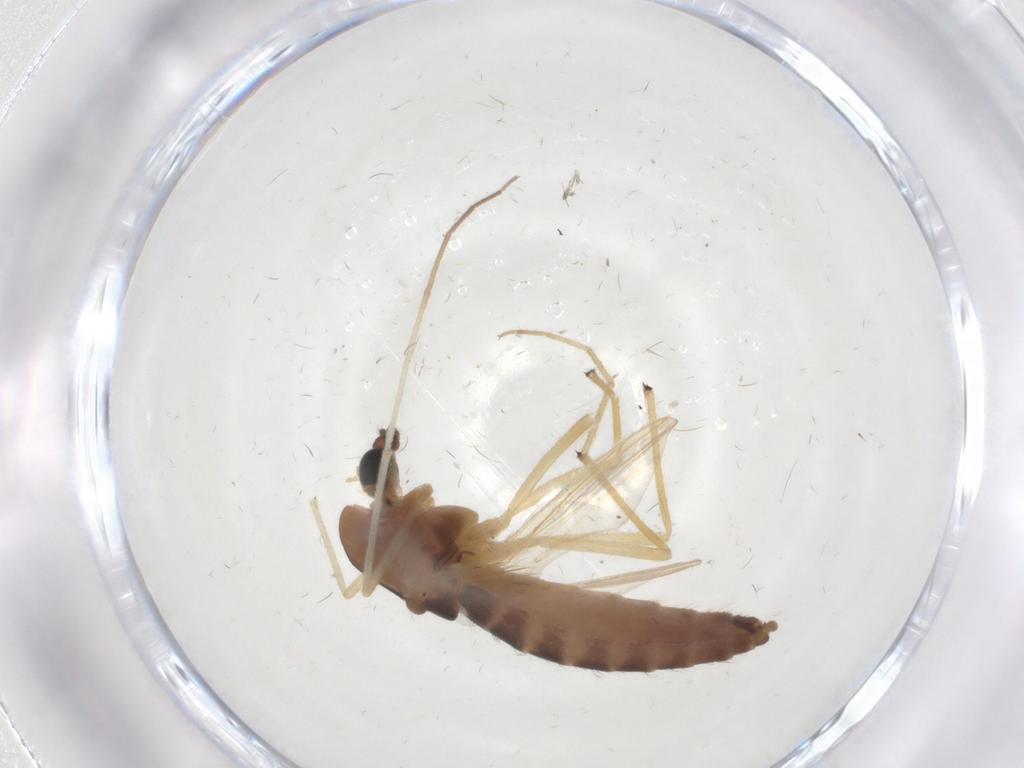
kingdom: Animalia
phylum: Arthropoda
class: Insecta
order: Diptera
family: Chironomidae
